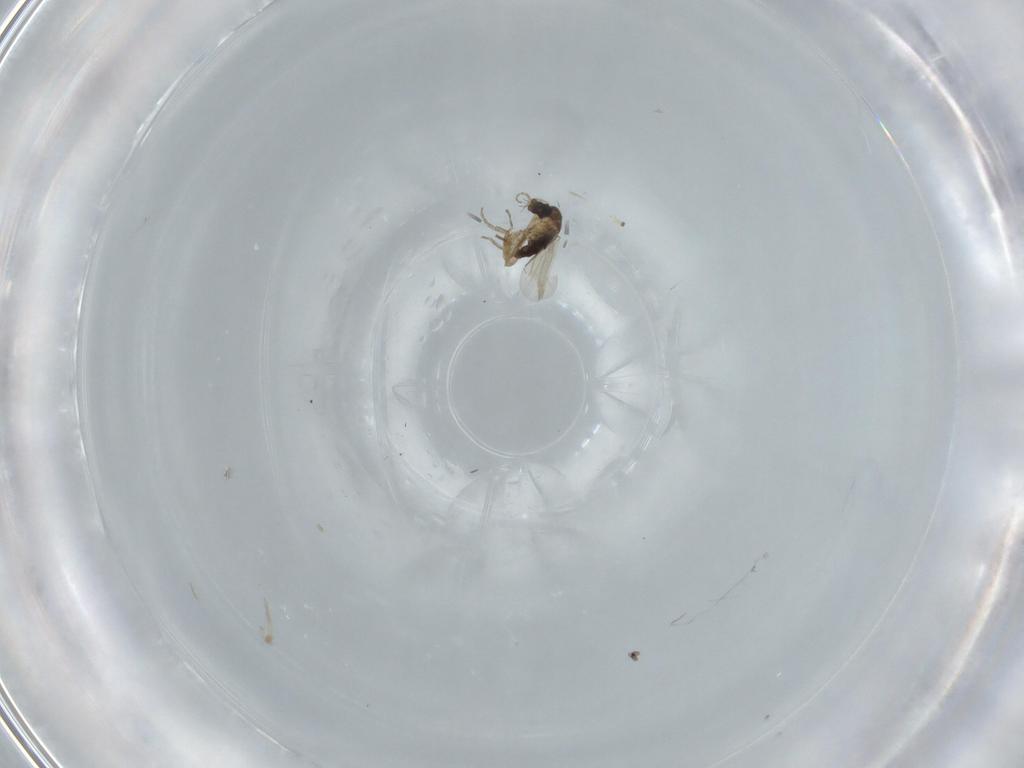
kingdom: Animalia
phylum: Arthropoda
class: Insecta
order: Diptera
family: Phoridae
